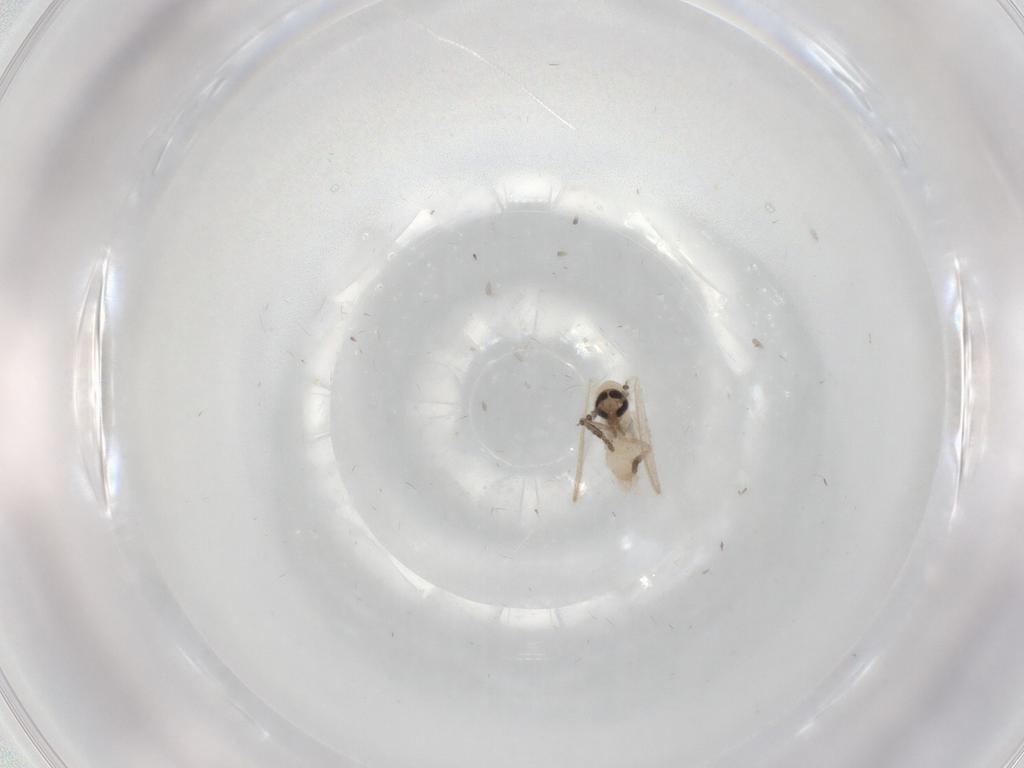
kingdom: Animalia
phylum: Arthropoda
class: Insecta
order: Diptera
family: Psychodidae
